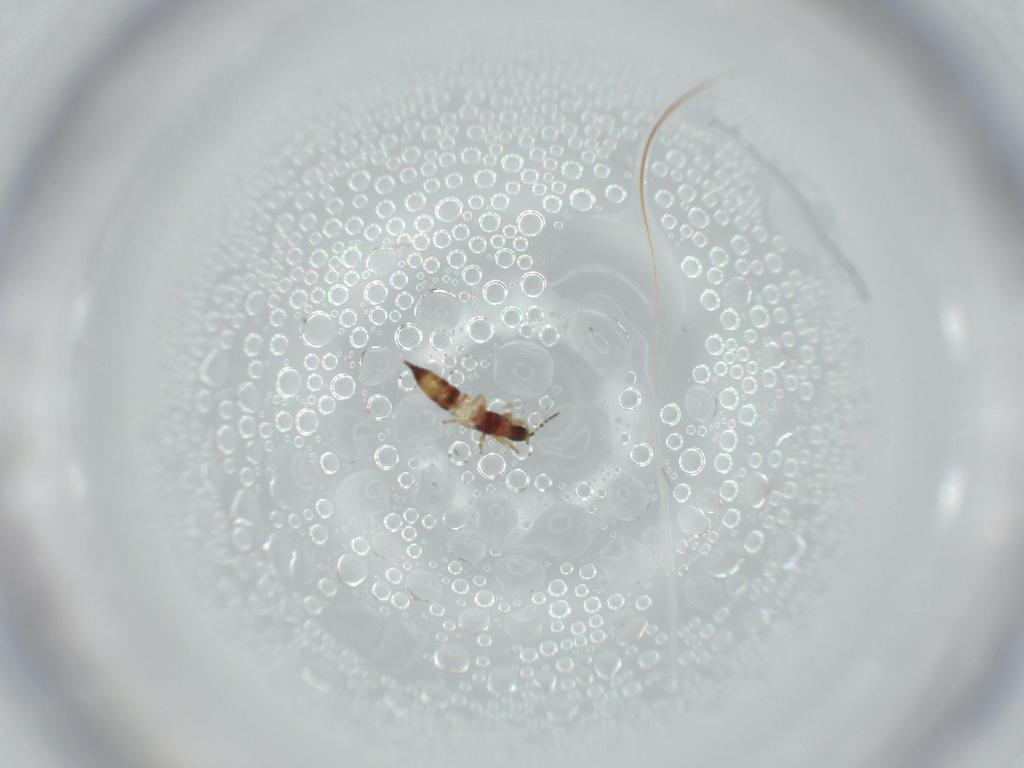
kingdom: Animalia
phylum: Arthropoda
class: Insecta
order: Thysanoptera
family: Phlaeothripidae
